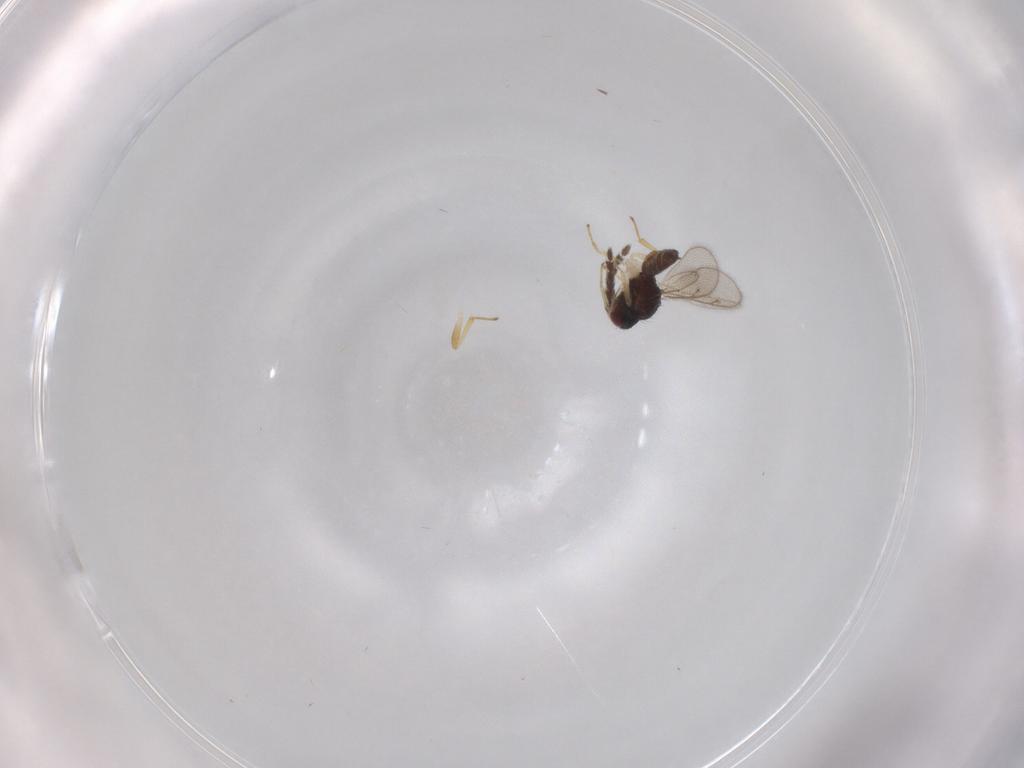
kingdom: Animalia
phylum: Arthropoda
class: Insecta
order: Hymenoptera
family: Eulophidae
